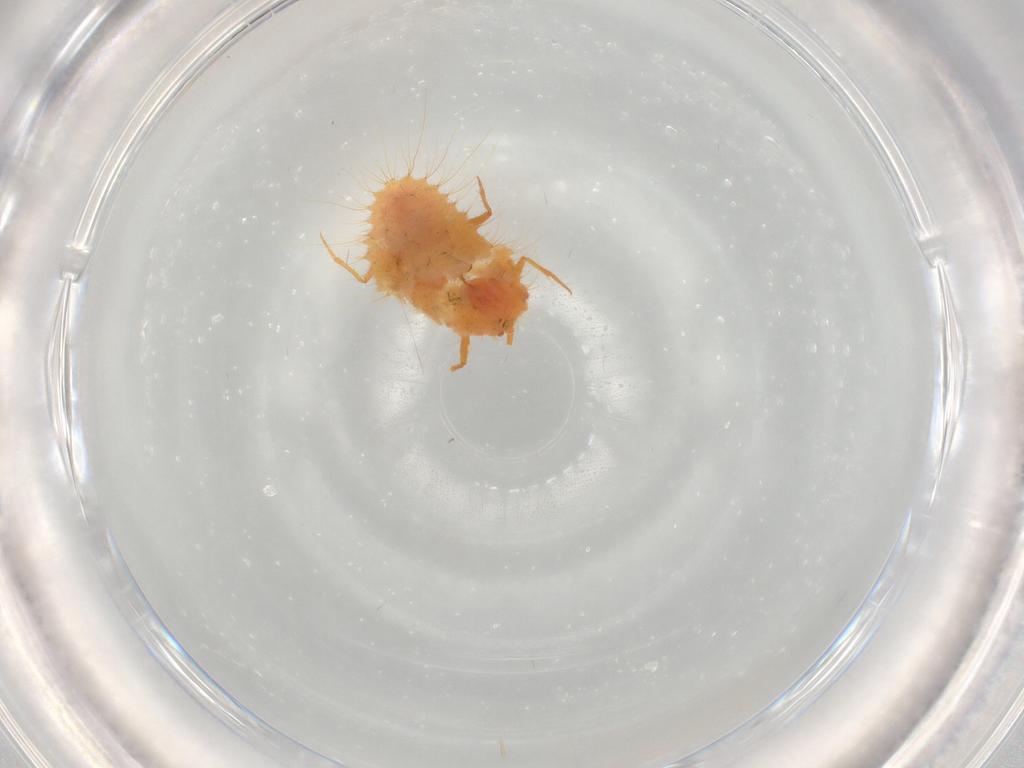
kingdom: Animalia
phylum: Arthropoda
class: Insecta
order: Hemiptera
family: Coccoidea_incertae_sedis
